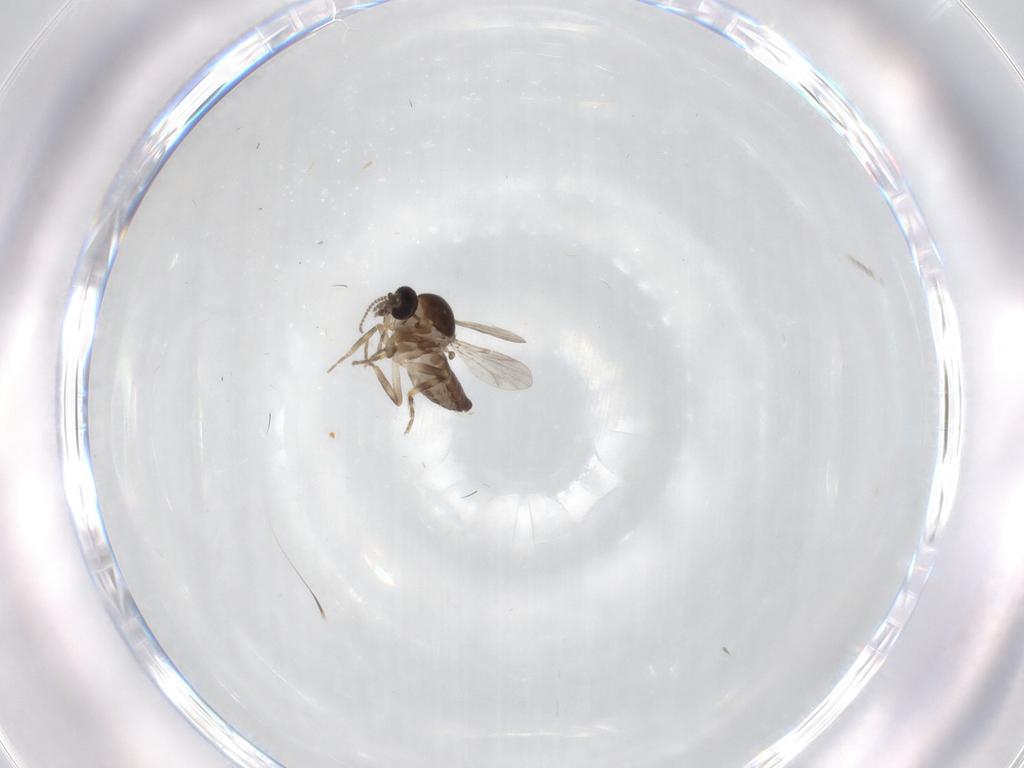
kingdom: Animalia
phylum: Arthropoda
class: Insecta
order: Diptera
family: Ceratopogonidae
